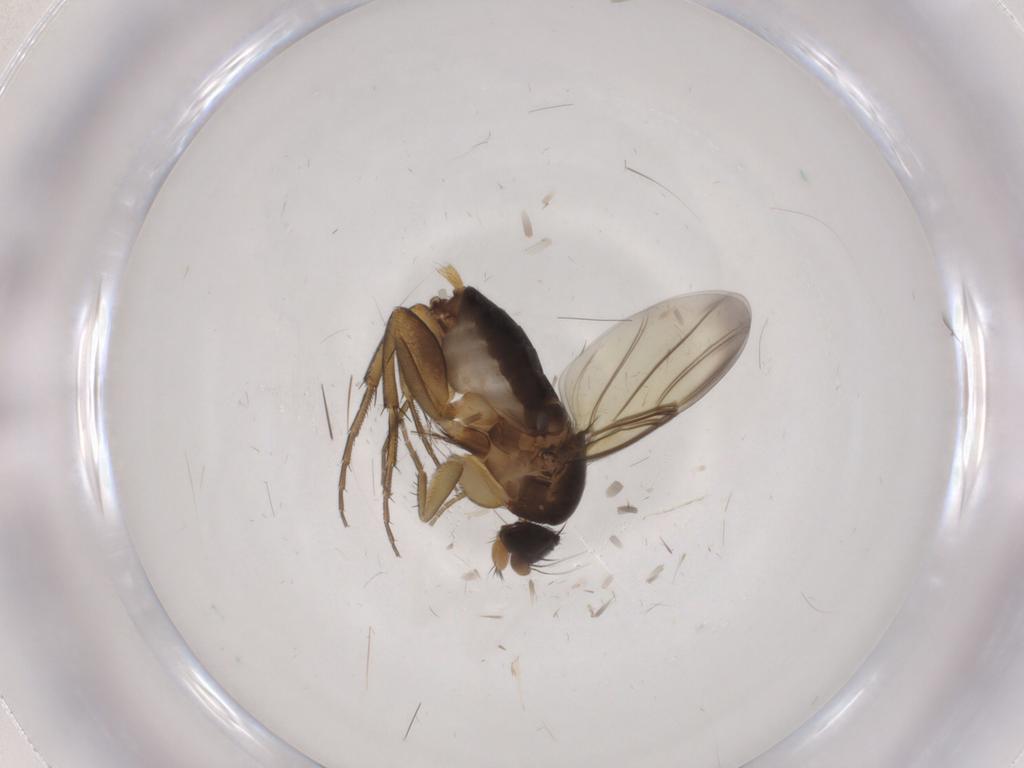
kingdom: Animalia
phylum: Arthropoda
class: Insecta
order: Diptera
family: Phoridae
